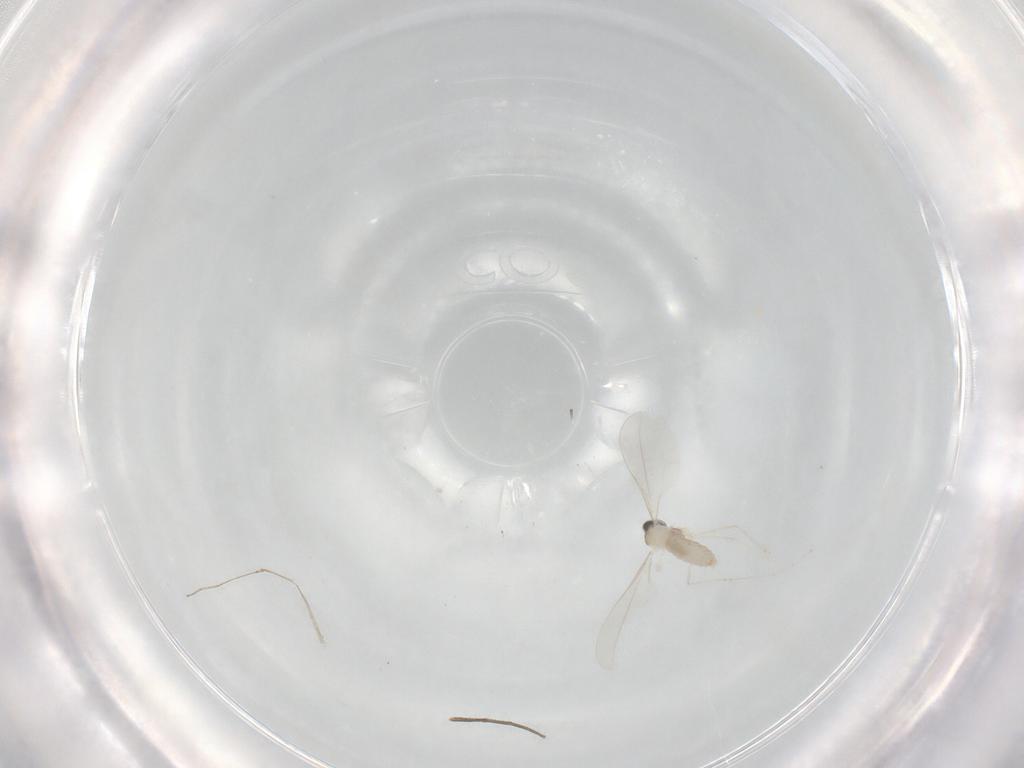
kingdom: Animalia
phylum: Arthropoda
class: Insecta
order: Diptera
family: Cecidomyiidae
